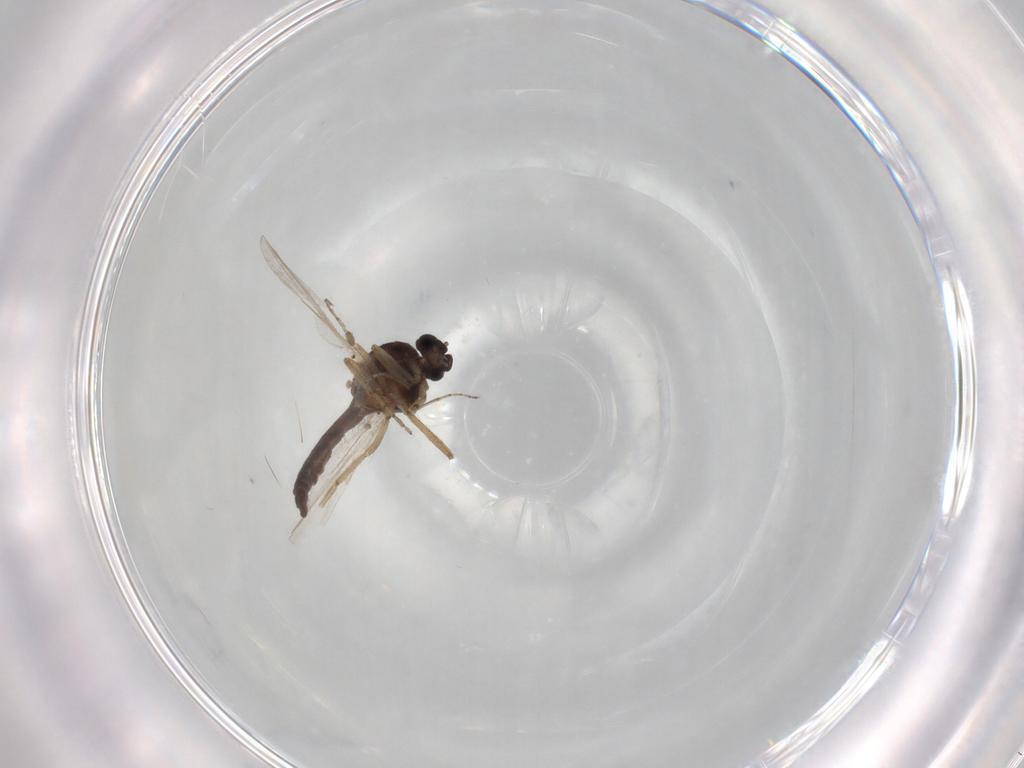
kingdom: Animalia
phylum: Arthropoda
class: Insecta
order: Diptera
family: Ceratopogonidae
